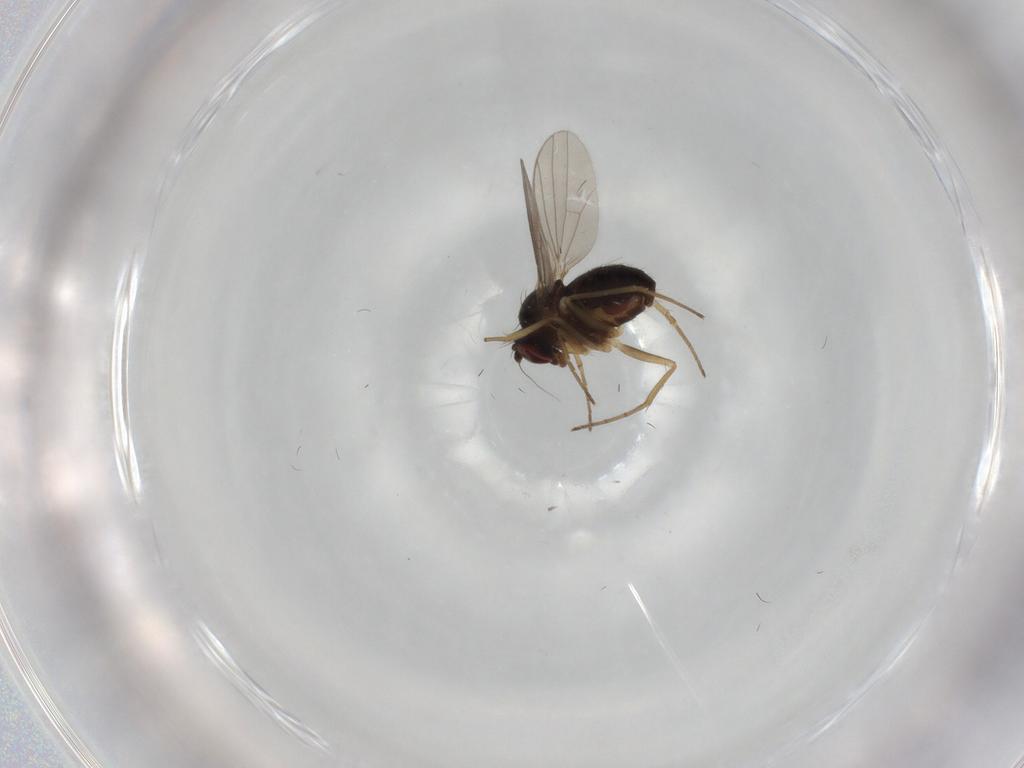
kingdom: Animalia
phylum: Arthropoda
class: Insecta
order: Diptera
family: Dolichopodidae
